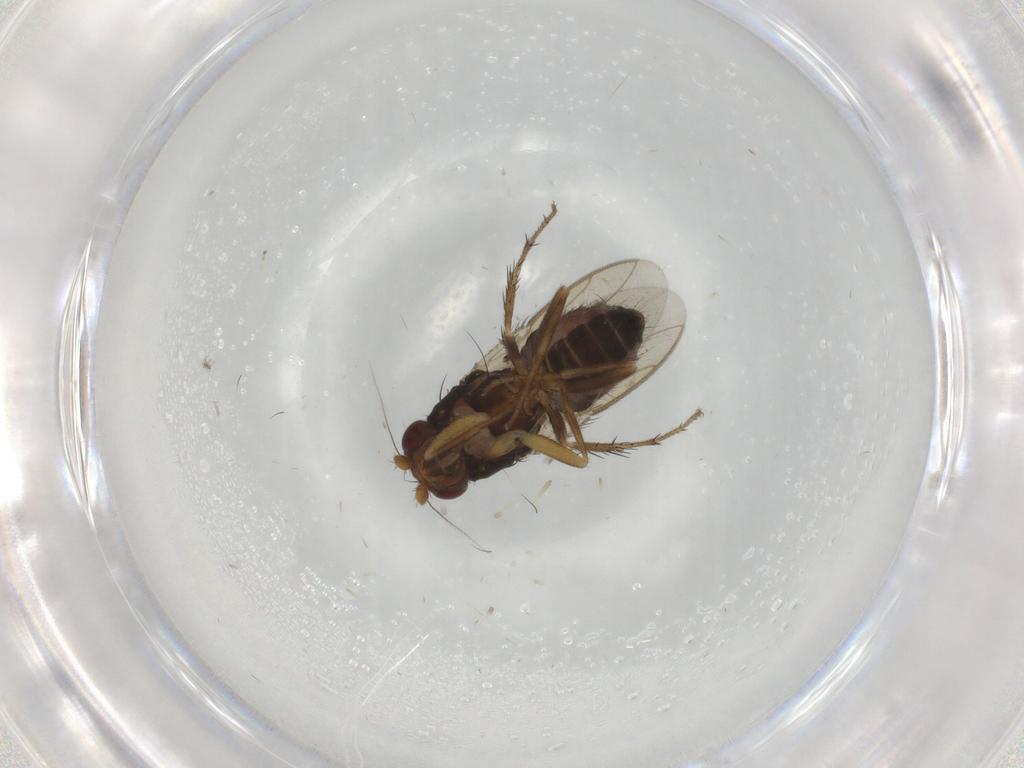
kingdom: Animalia
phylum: Arthropoda
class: Insecta
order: Diptera
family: Sphaeroceridae
